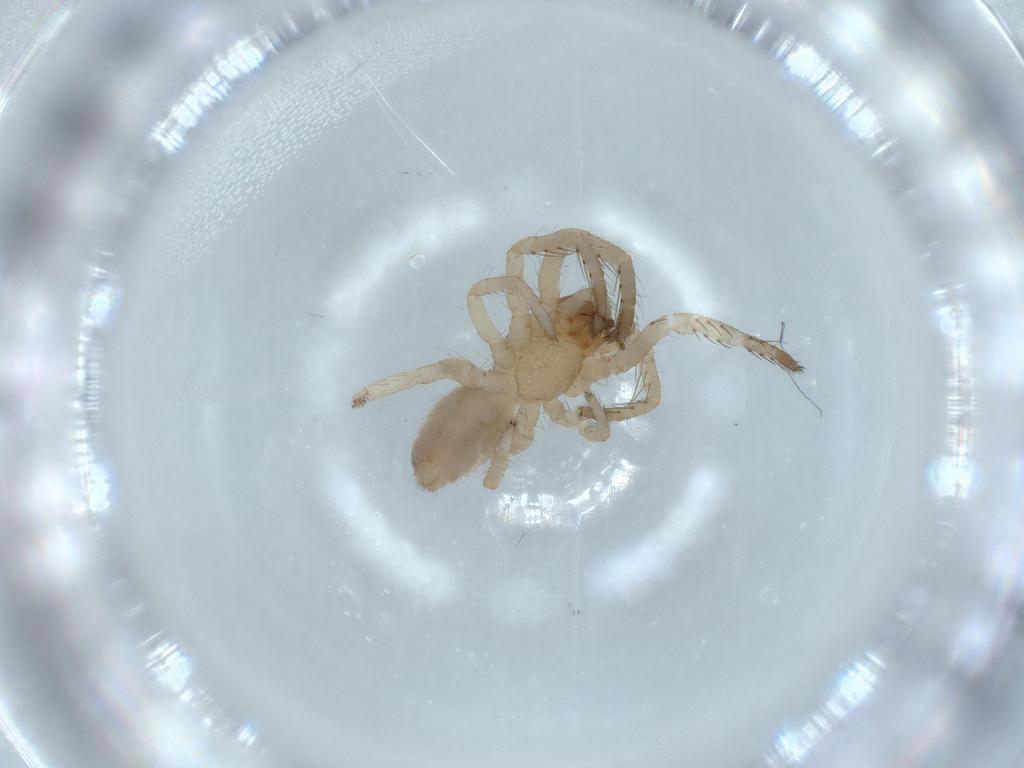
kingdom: Animalia
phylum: Arthropoda
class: Arachnida
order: Araneae
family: Segestriidae
